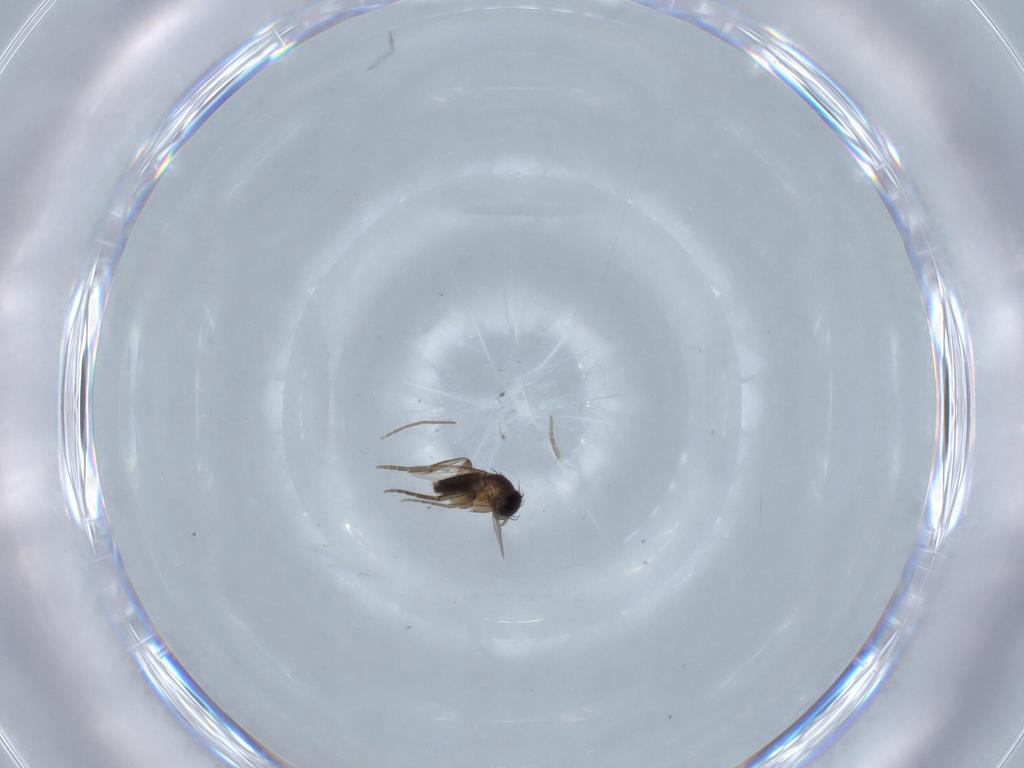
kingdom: Animalia
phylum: Arthropoda
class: Insecta
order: Diptera
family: Phoridae
